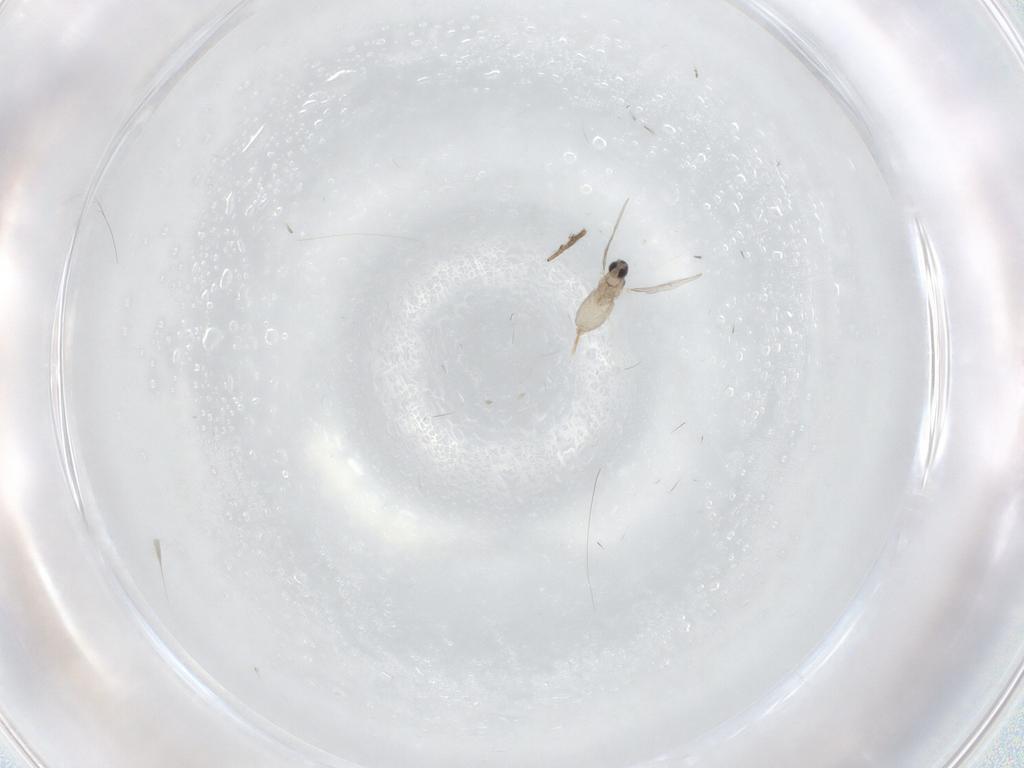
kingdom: Animalia
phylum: Arthropoda
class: Insecta
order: Diptera
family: Cecidomyiidae
